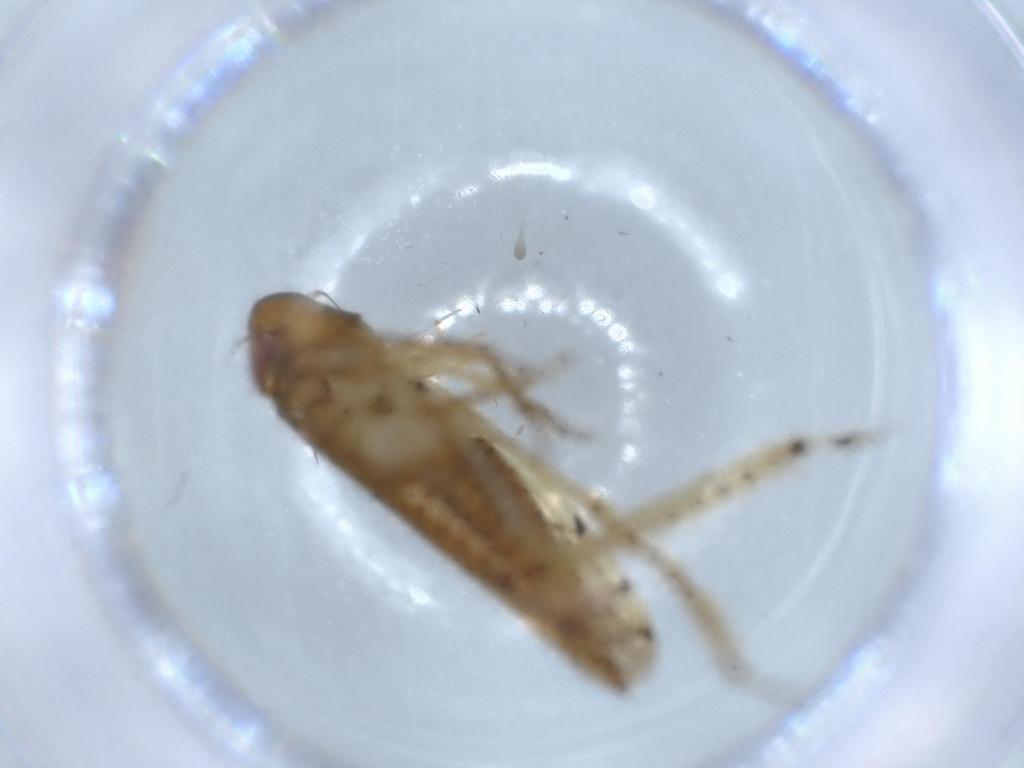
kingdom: Animalia
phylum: Arthropoda
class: Insecta
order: Hemiptera
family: Cicadellidae
